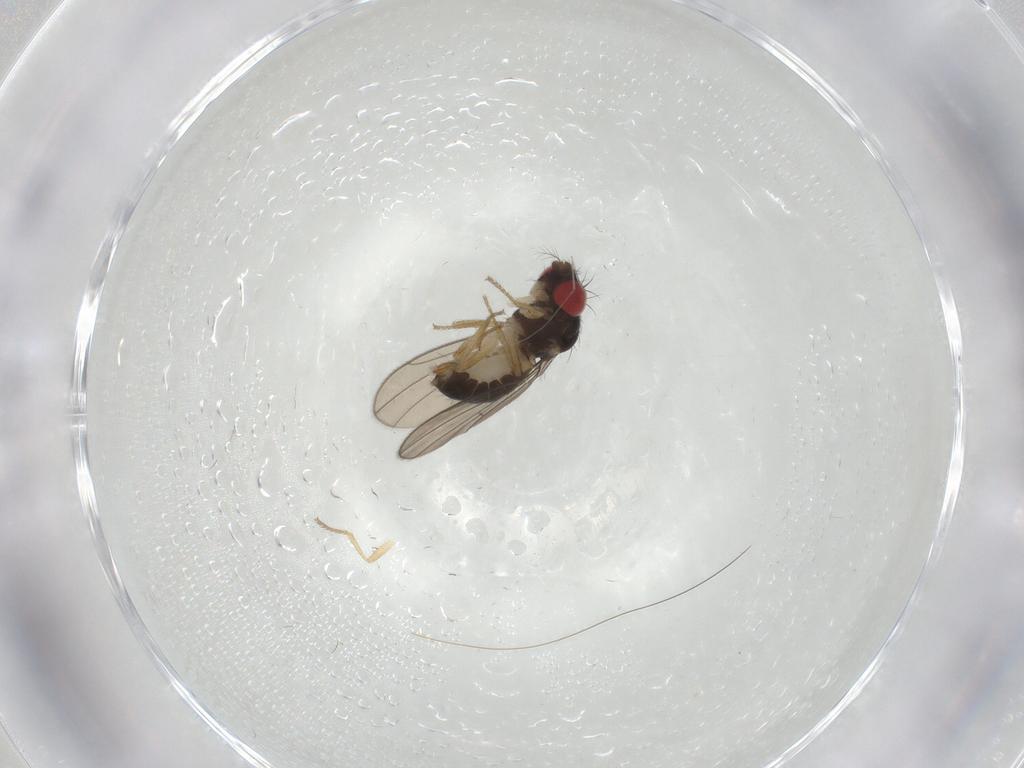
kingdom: Animalia
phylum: Arthropoda
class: Insecta
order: Diptera
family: Drosophilidae
